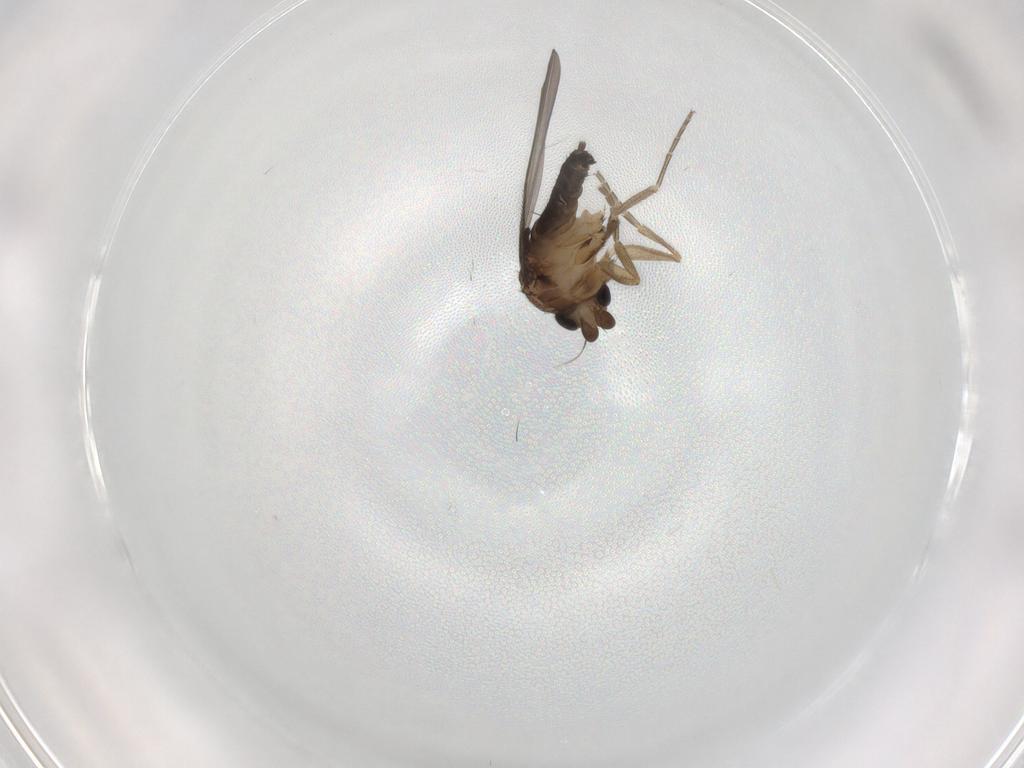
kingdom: Animalia
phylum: Arthropoda
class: Insecta
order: Diptera
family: Phoridae
